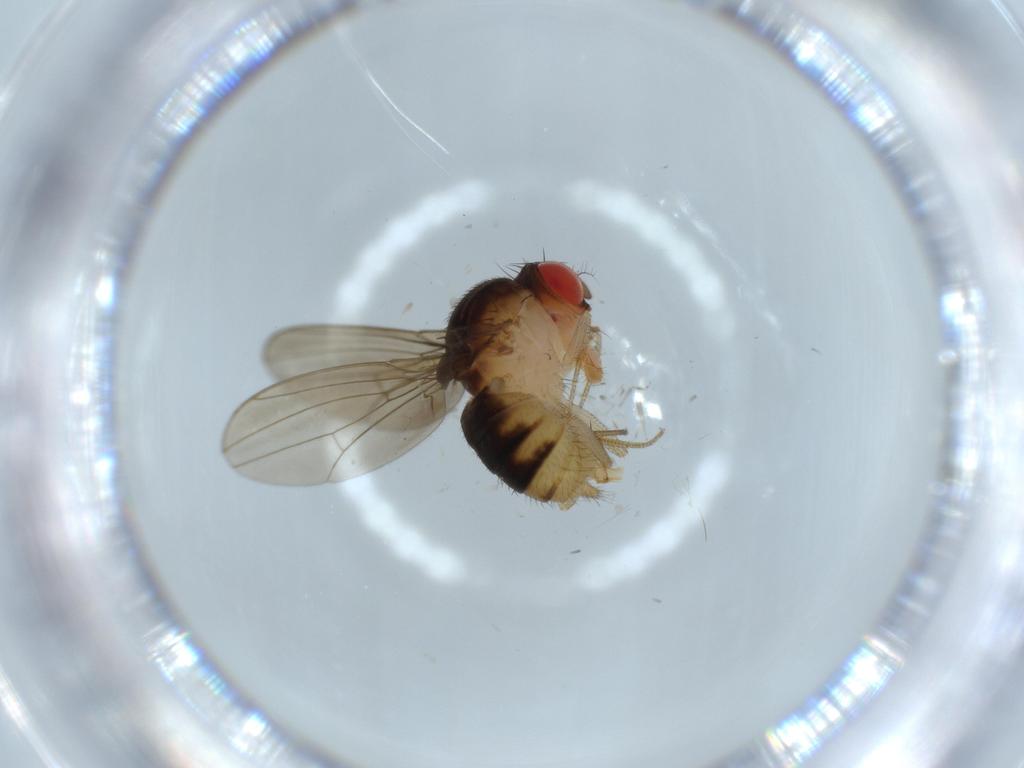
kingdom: Animalia
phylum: Arthropoda
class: Insecta
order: Diptera
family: Drosophilidae
